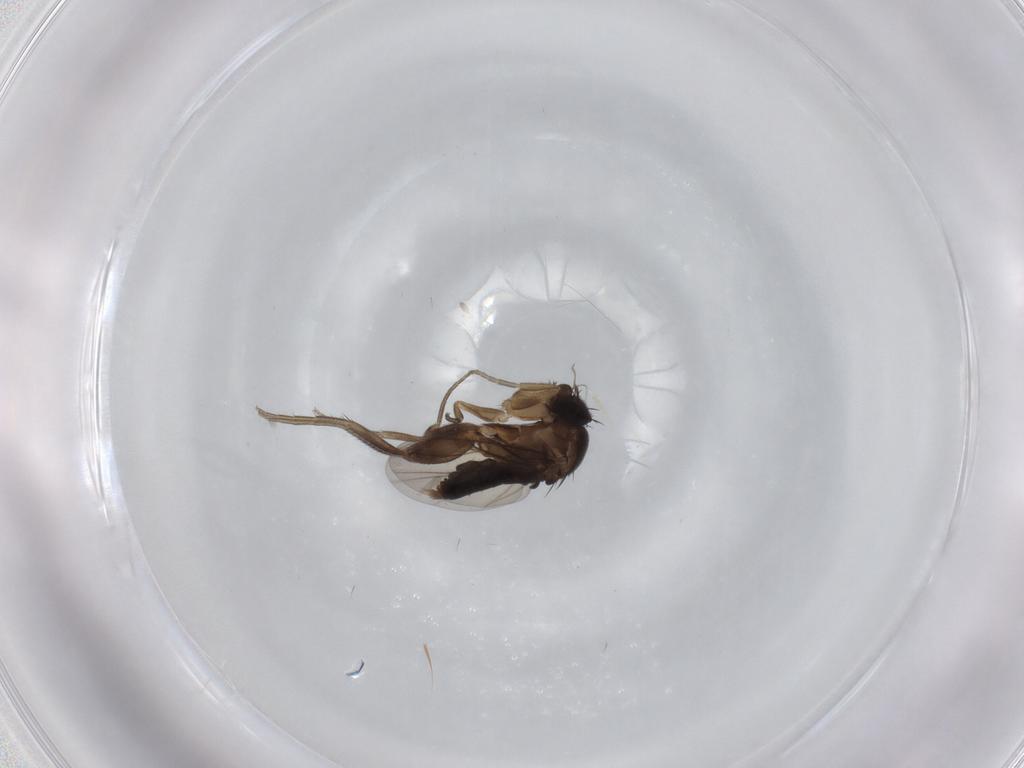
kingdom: Animalia
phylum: Arthropoda
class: Insecta
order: Diptera
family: Phoridae
